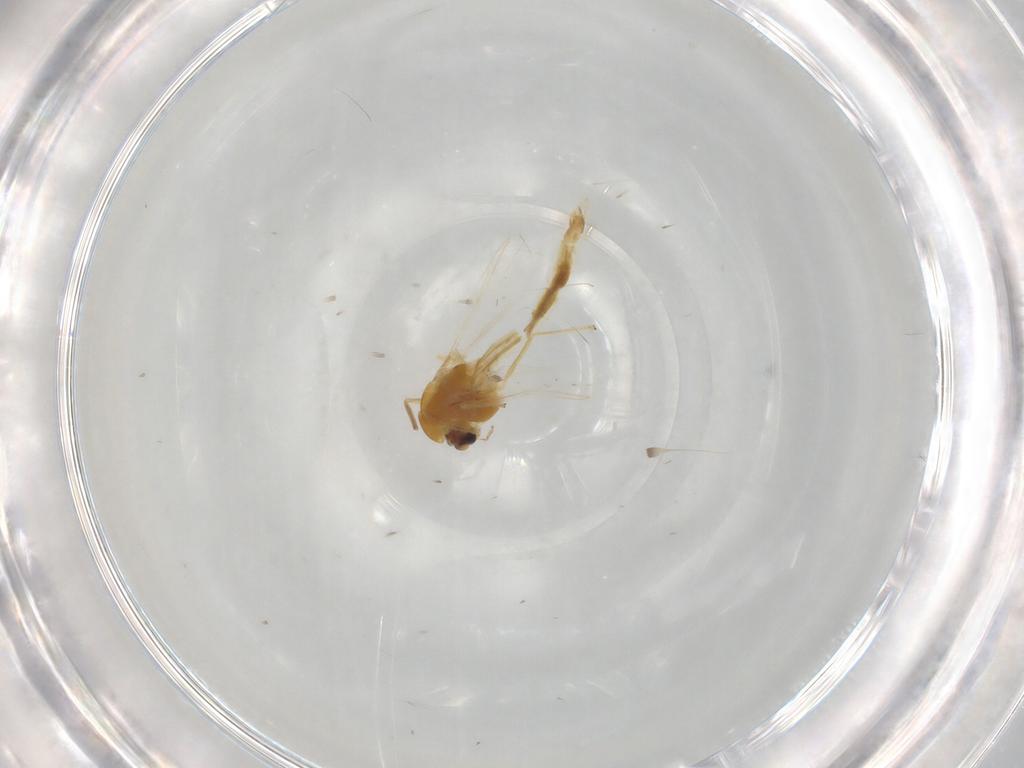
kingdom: Animalia
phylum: Arthropoda
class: Insecta
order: Diptera
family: Chironomidae
